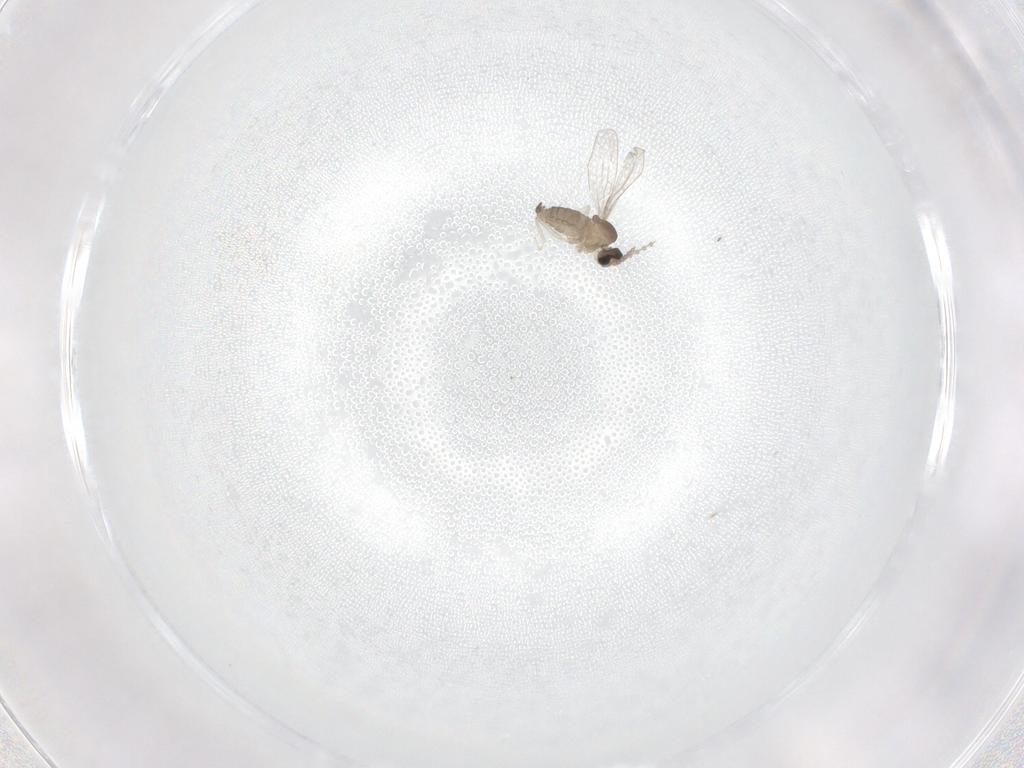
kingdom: Animalia
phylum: Arthropoda
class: Insecta
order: Diptera
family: Cecidomyiidae
